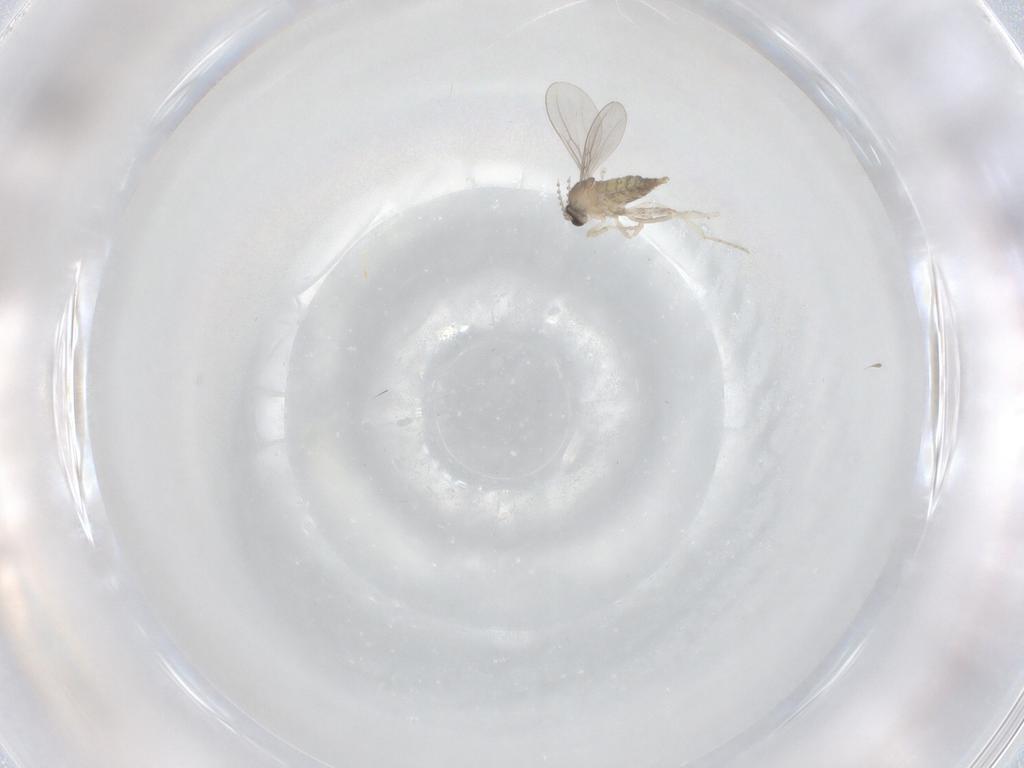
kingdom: Animalia
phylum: Arthropoda
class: Insecta
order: Diptera
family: Cecidomyiidae
